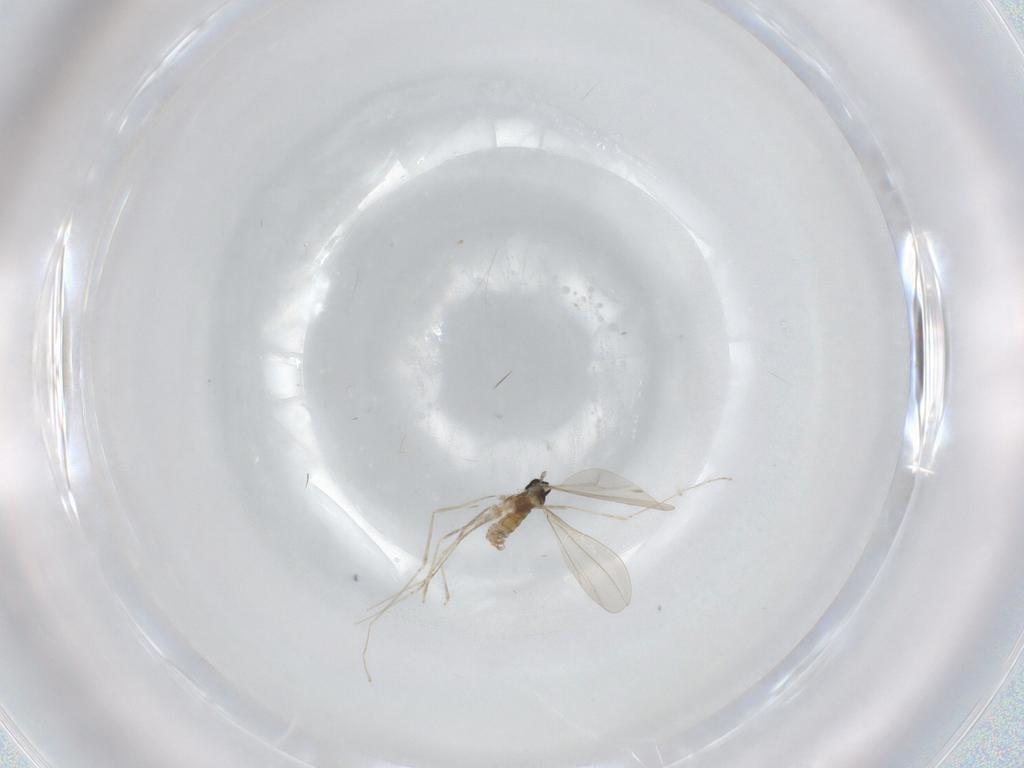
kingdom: Animalia
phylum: Arthropoda
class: Insecta
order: Diptera
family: Cecidomyiidae
